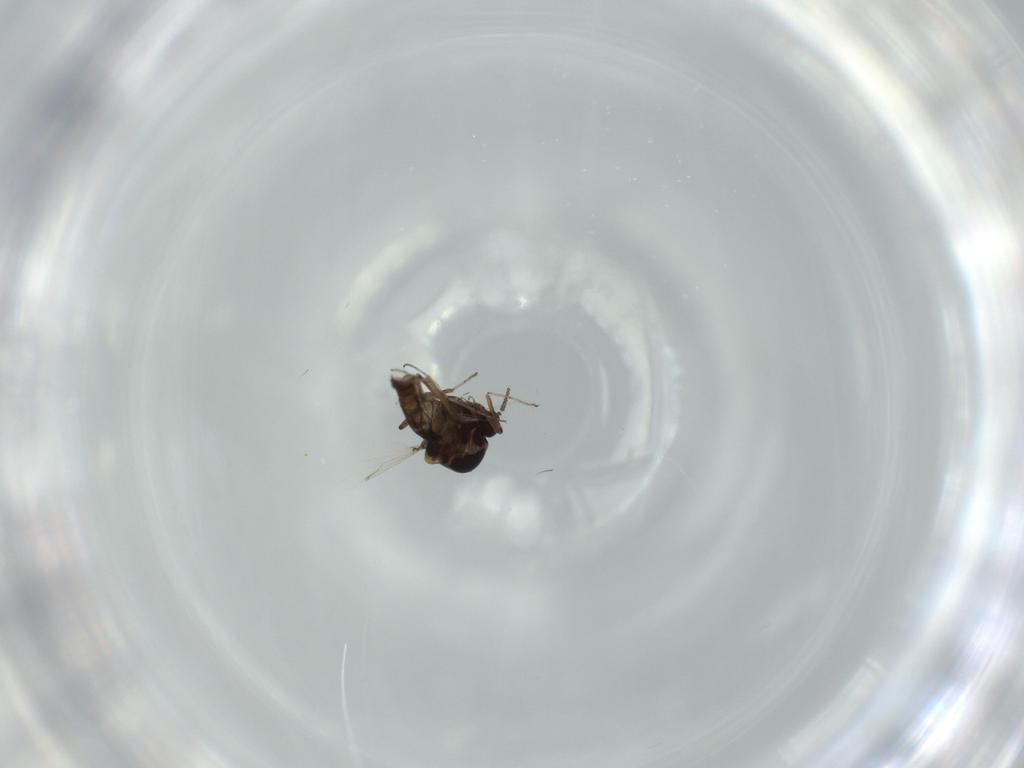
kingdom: Animalia
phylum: Arthropoda
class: Insecta
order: Diptera
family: Ceratopogonidae
